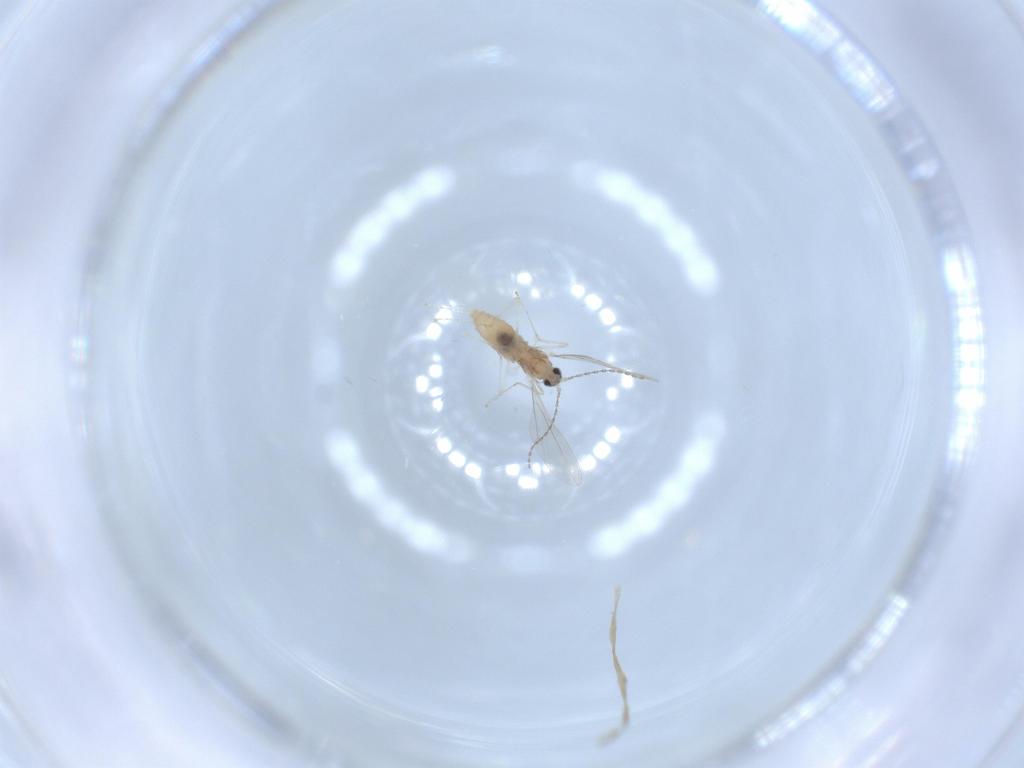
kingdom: Animalia
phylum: Arthropoda
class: Insecta
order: Diptera
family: Cecidomyiidae
